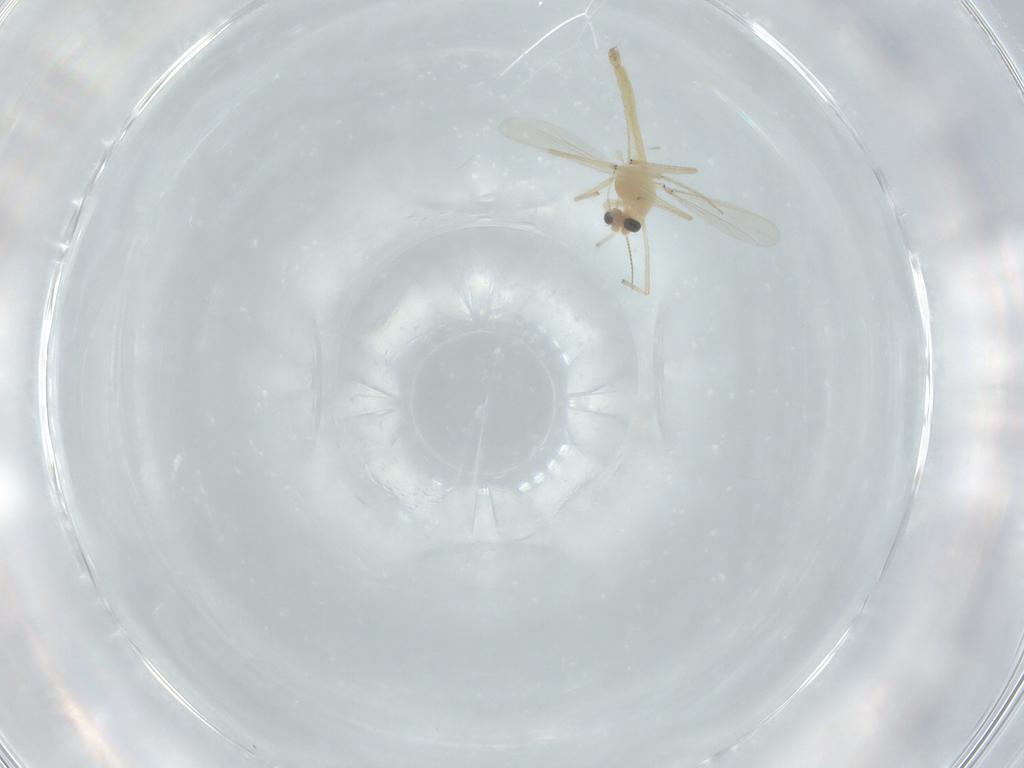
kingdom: Animalia
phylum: Arthropoda
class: Insecta
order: Diptera
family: Chironomidae
